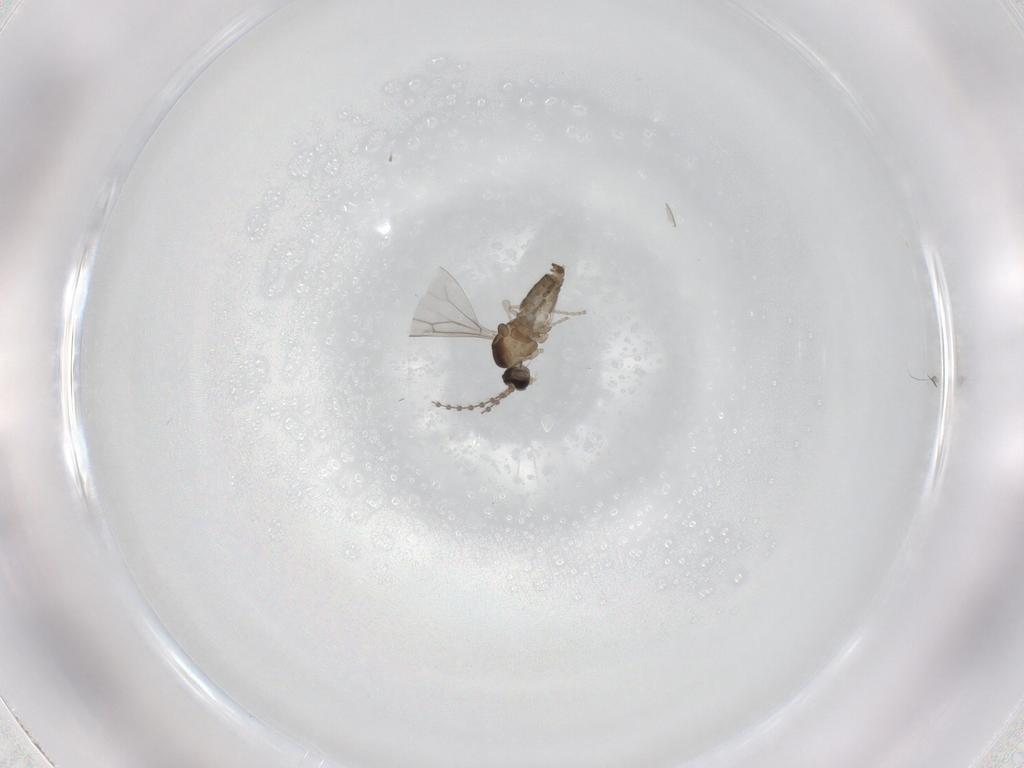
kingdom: Animalia
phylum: Arthropoda
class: Insecta
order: Diptera
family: Cecidomyiidae
